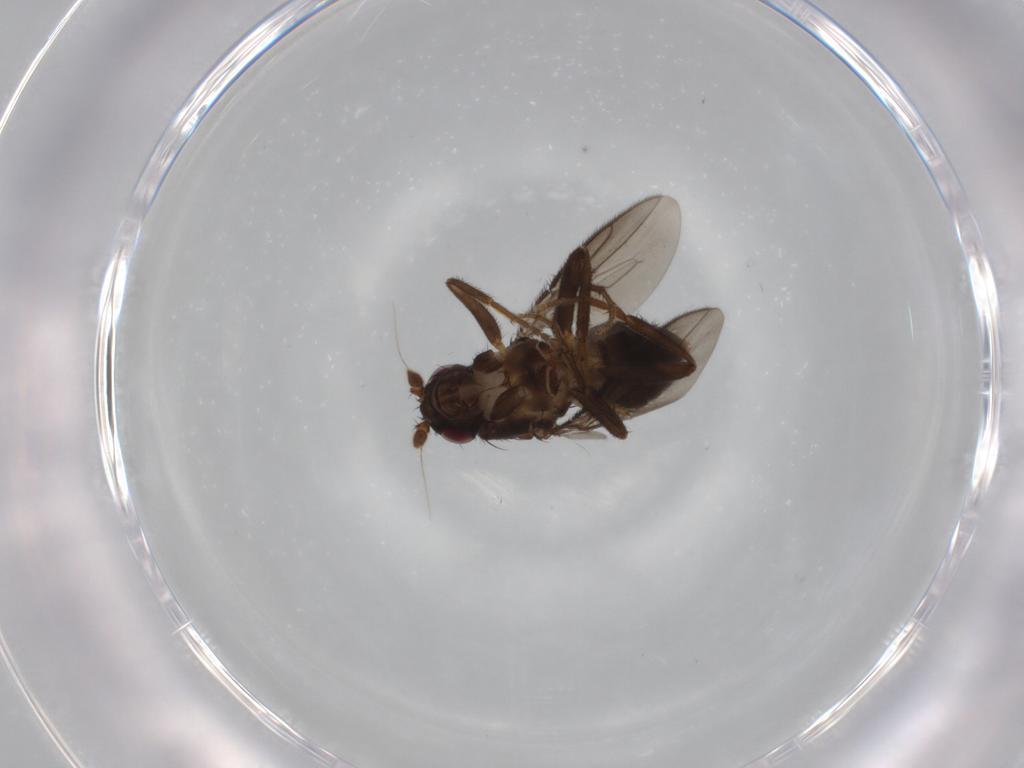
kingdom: Animalia
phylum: Arthropoda
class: Insecta
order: Diptera
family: Sphaeroceridae
